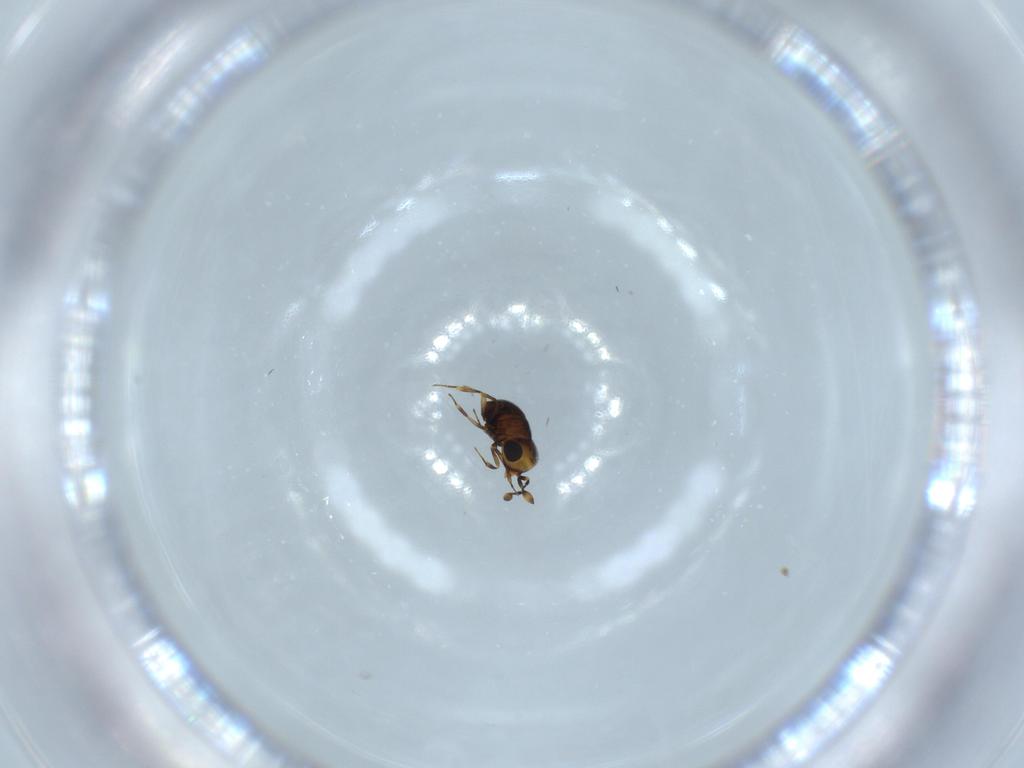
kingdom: Animalia
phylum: Arthropoda
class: Insecta
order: Hymenoptera
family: Scelionidae
